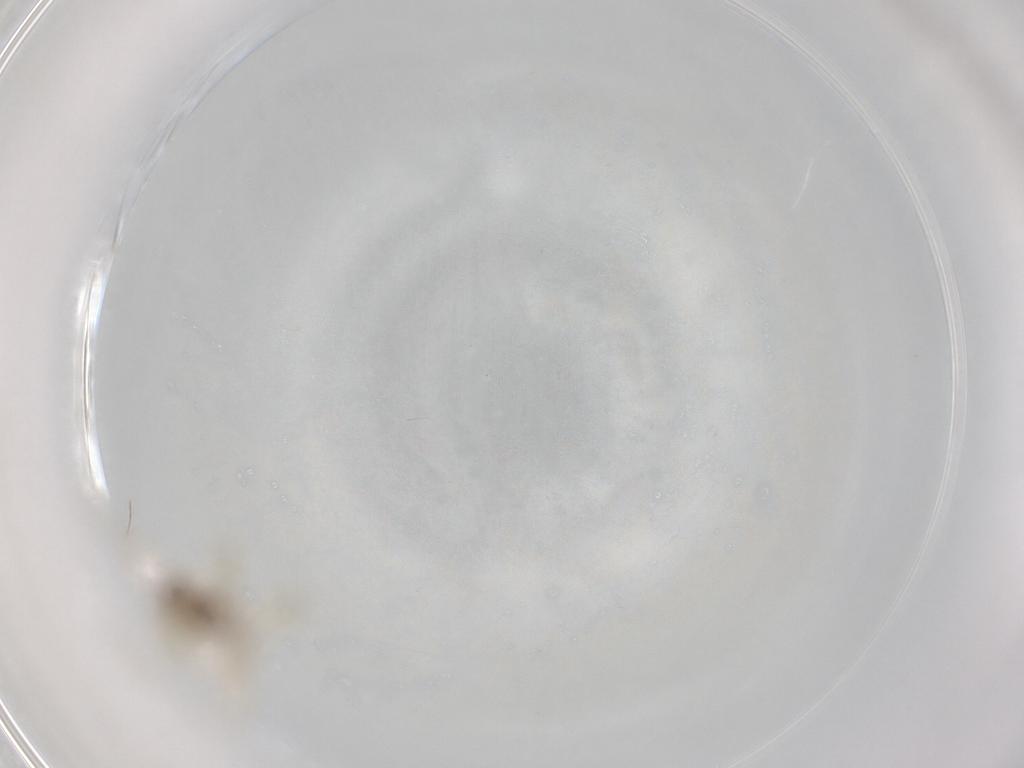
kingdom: Animalia
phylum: Arthropoda
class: Insecta
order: Diptera
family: Chironomidae
